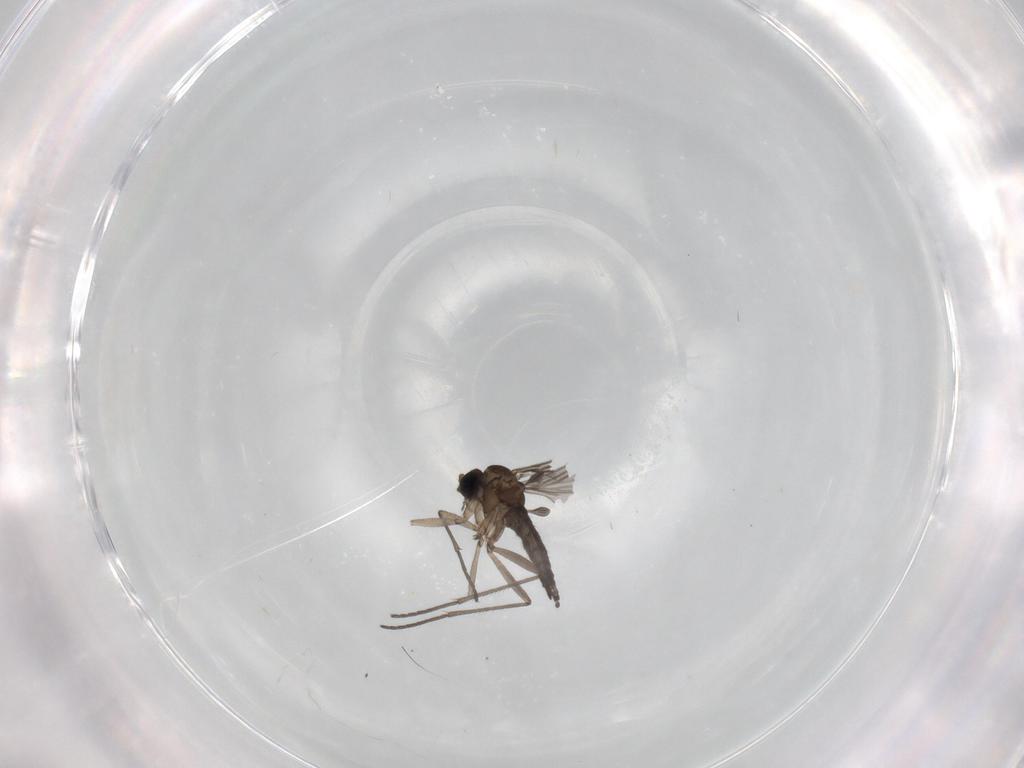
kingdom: Animalia
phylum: Arthropoda
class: Insecta
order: Diptera
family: Sciaridae
